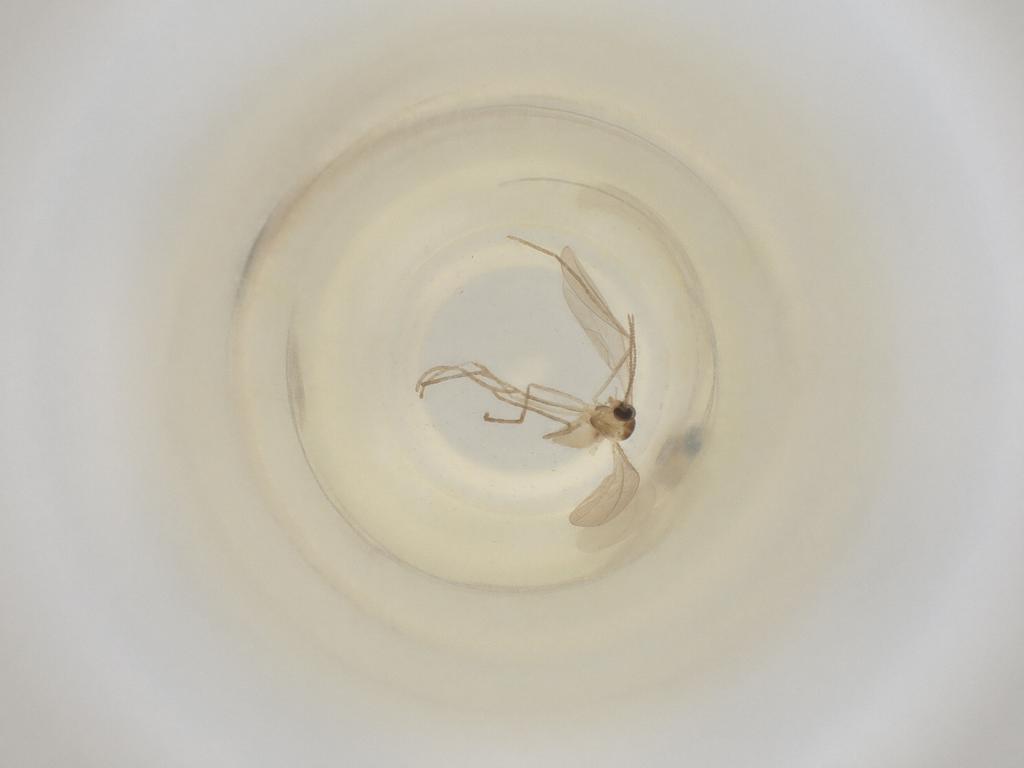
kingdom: Animalia
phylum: Arthropoda
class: Insecta
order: Diptera
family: Cecidomyiidae
